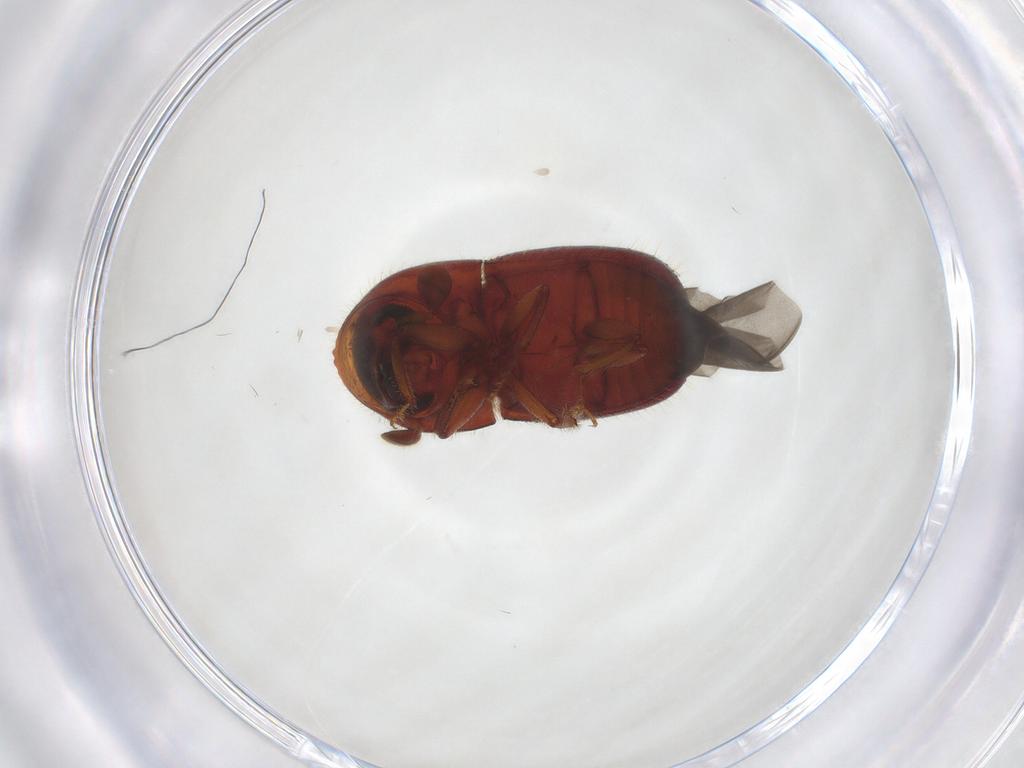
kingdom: Animalia
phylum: Arthropoda
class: Insecta
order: Coleoptera
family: Curculionidae
